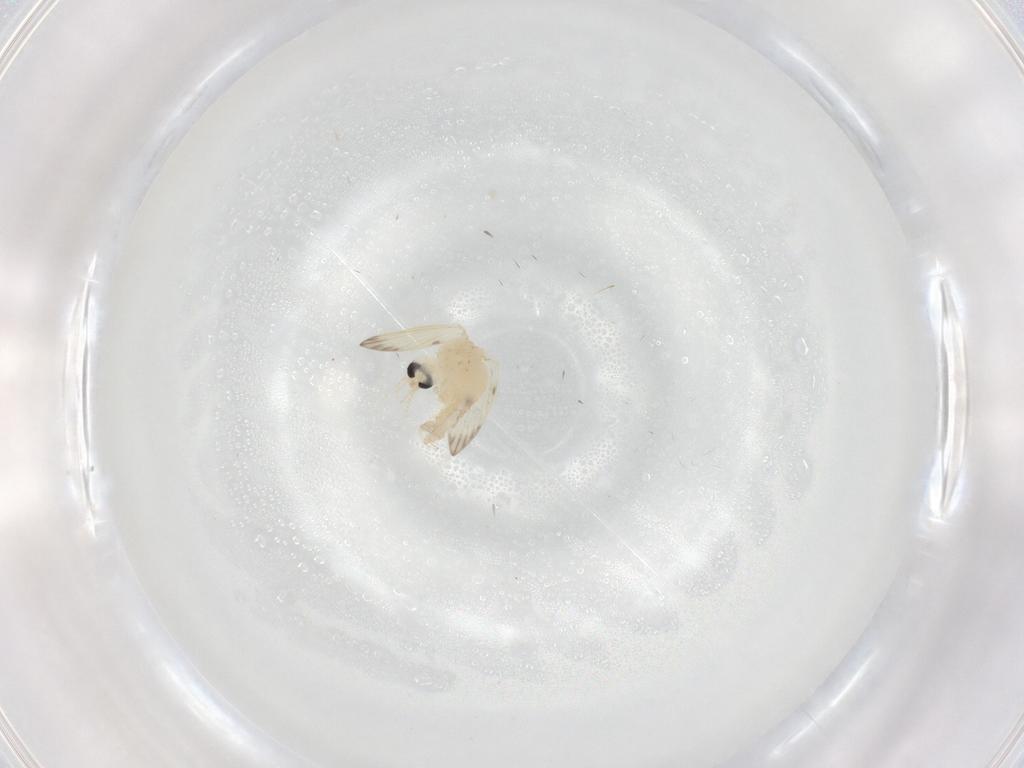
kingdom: Animalia
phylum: Arthropoda
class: Insecta
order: Diptera
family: Psychodidae
